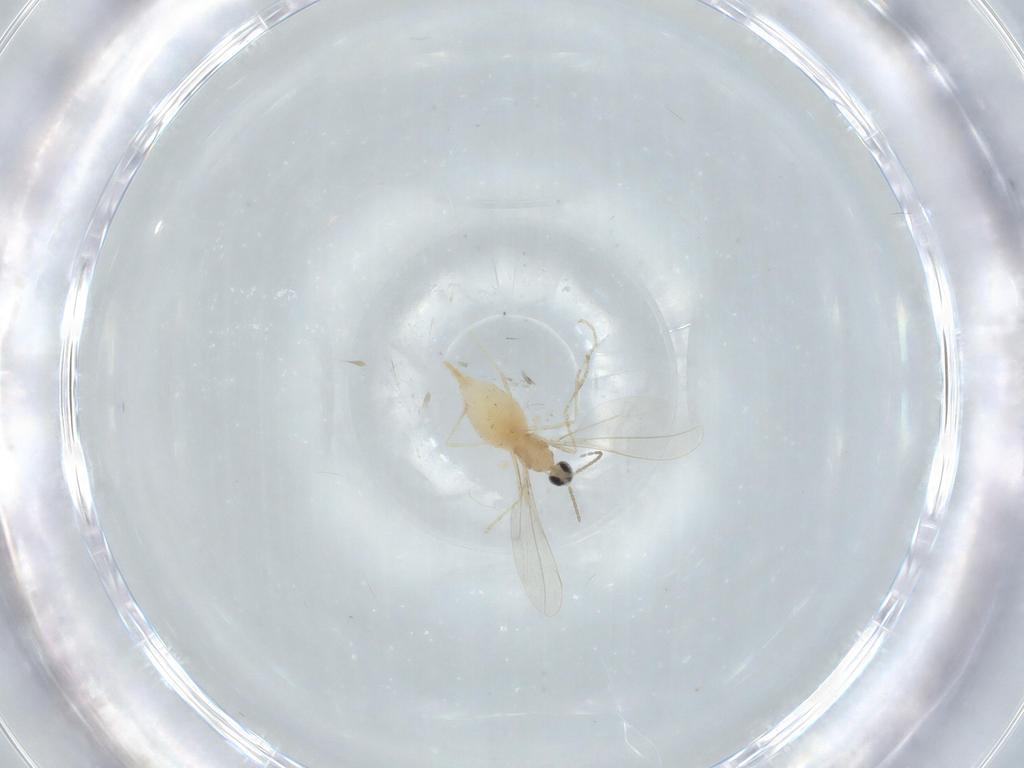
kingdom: Animalia
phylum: Arthropoda
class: Insecta
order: Diptera
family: Cecidomyiidae
